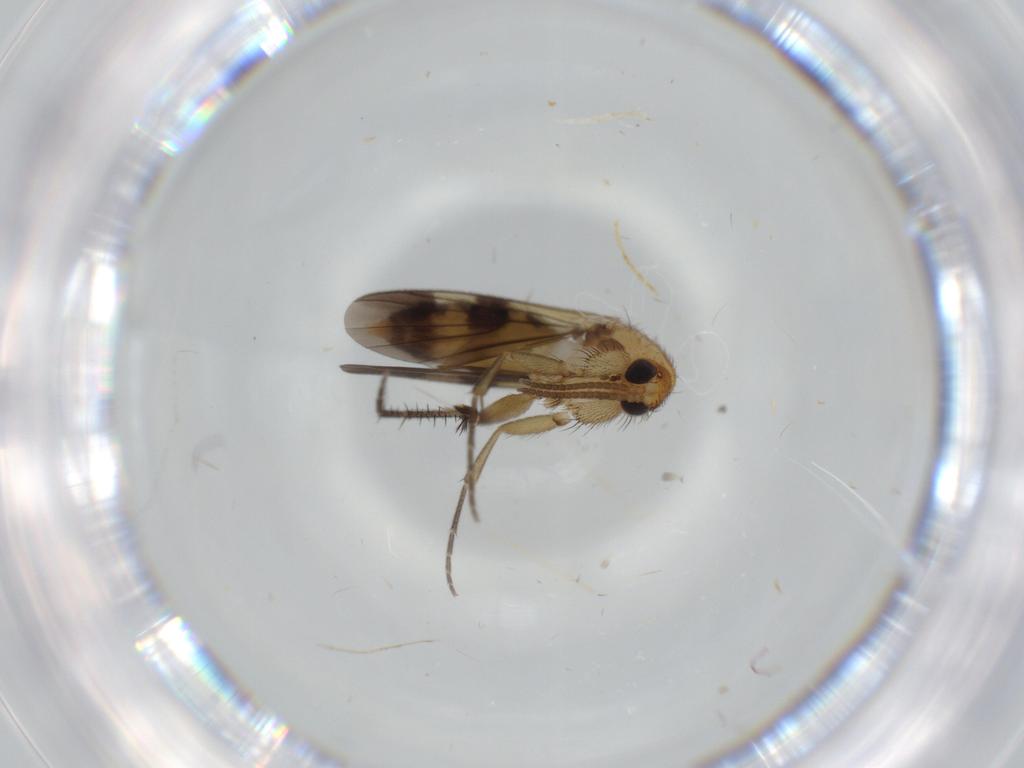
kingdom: Animalia
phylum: Arthropoda
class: Insecta
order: Diptera
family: Mycetophilidae
